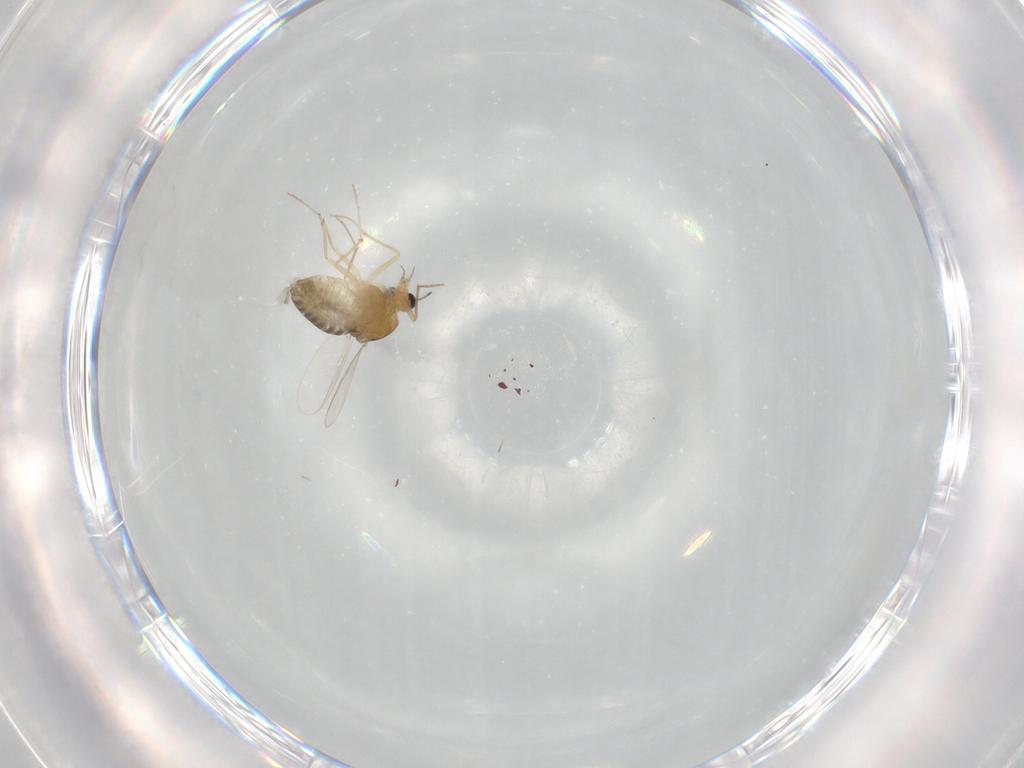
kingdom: Animalia
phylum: Arthropoda
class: Insecta
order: Diptera
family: Chironomidae
